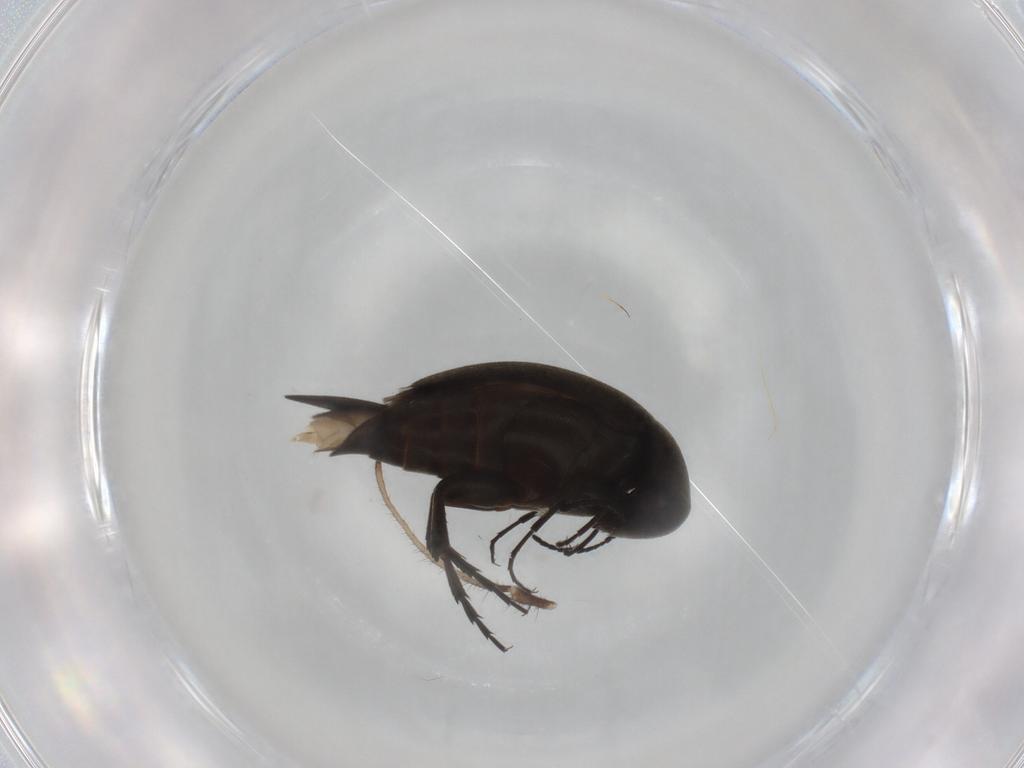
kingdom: Animalia
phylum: Arthropoda
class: Insecta
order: Coleoptera
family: Mordellidae
